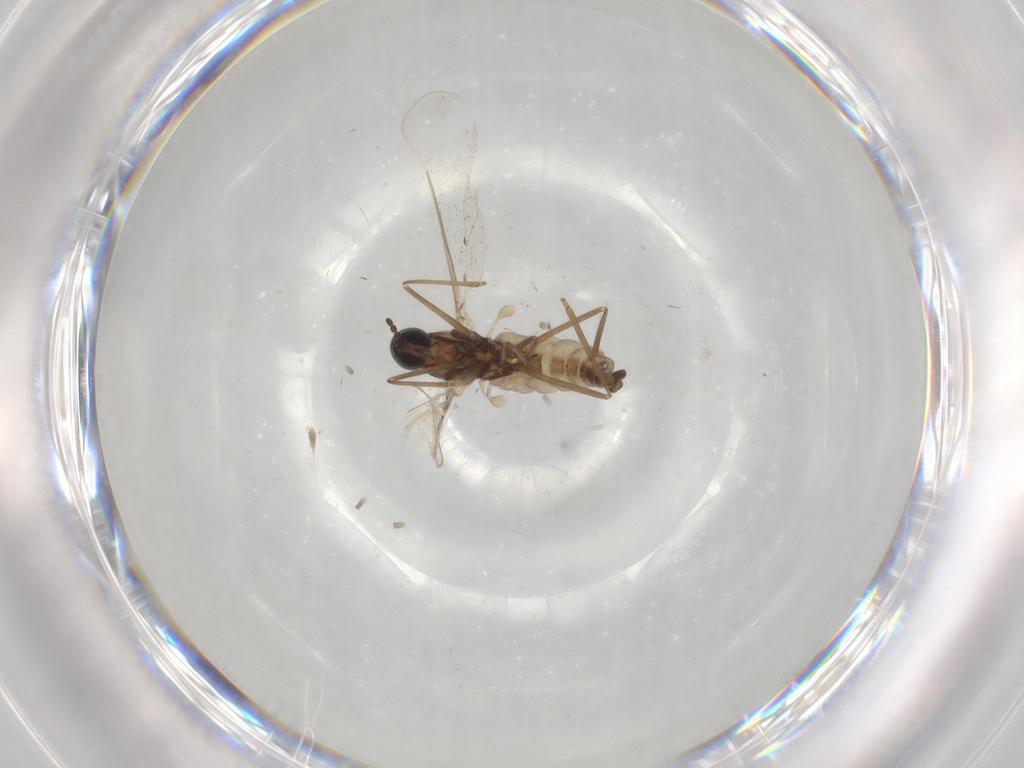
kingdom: Animalia
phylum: Arthropoda
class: Insecta
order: Diptera
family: Cecidomyiidae
